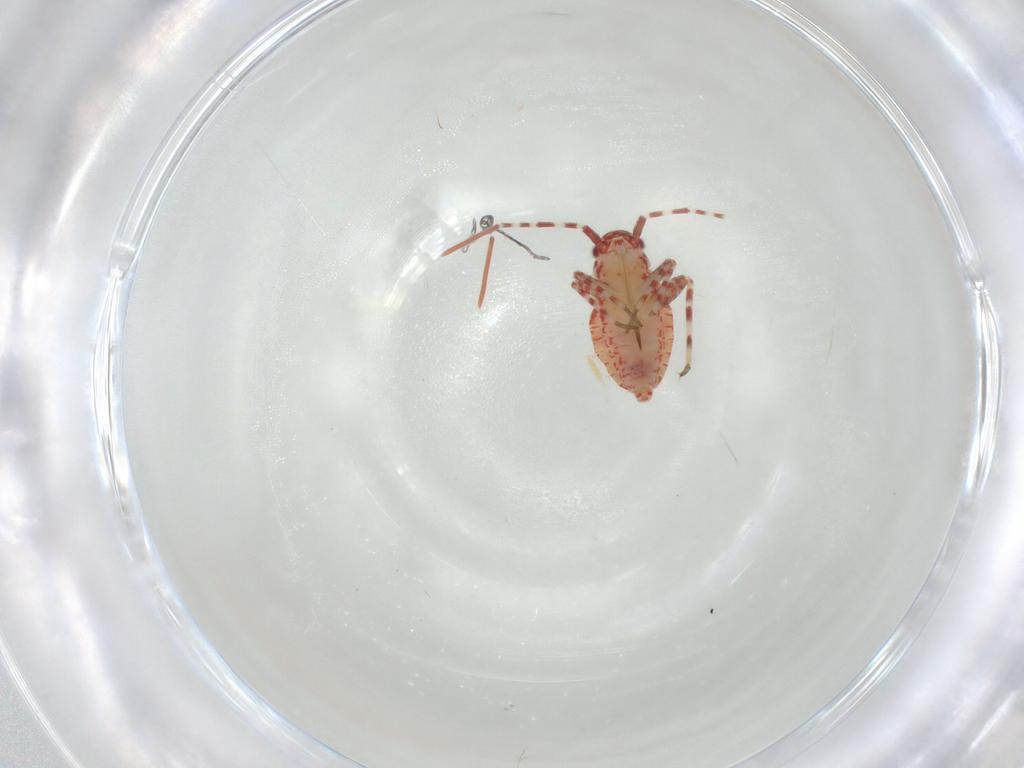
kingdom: Animalia
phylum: Arthropoda
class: Insecta
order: Hemiptera
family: Miridae
